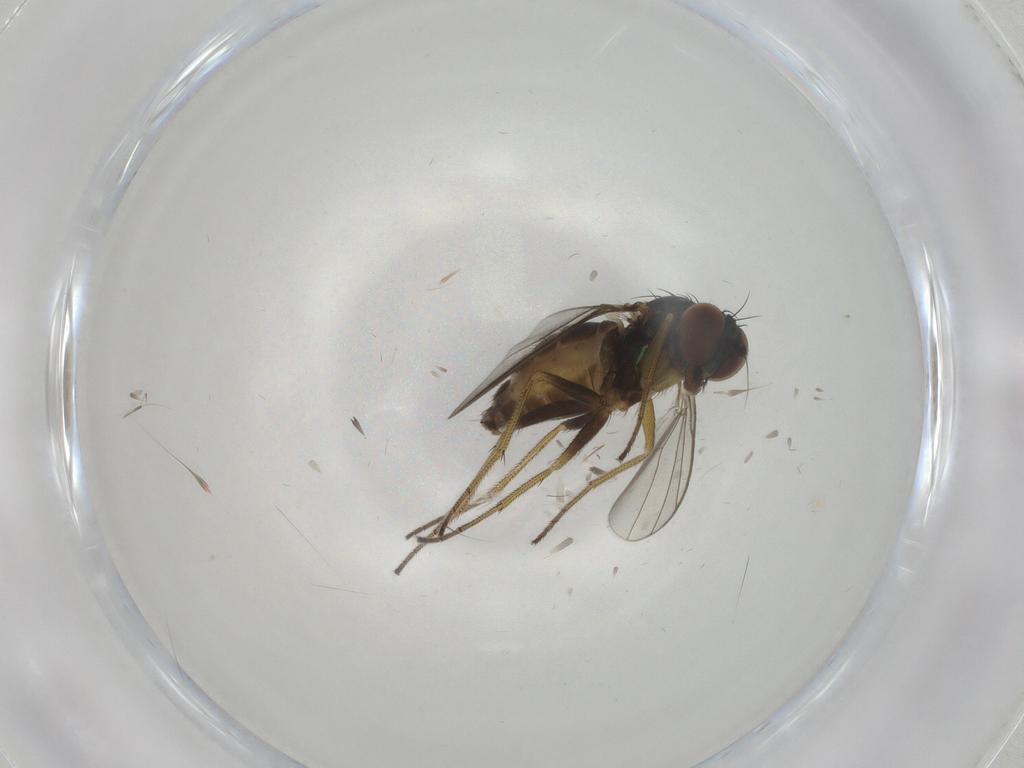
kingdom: Animalia
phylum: Arthropoda
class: Insecta
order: Diptera
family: Dolichopodidae
